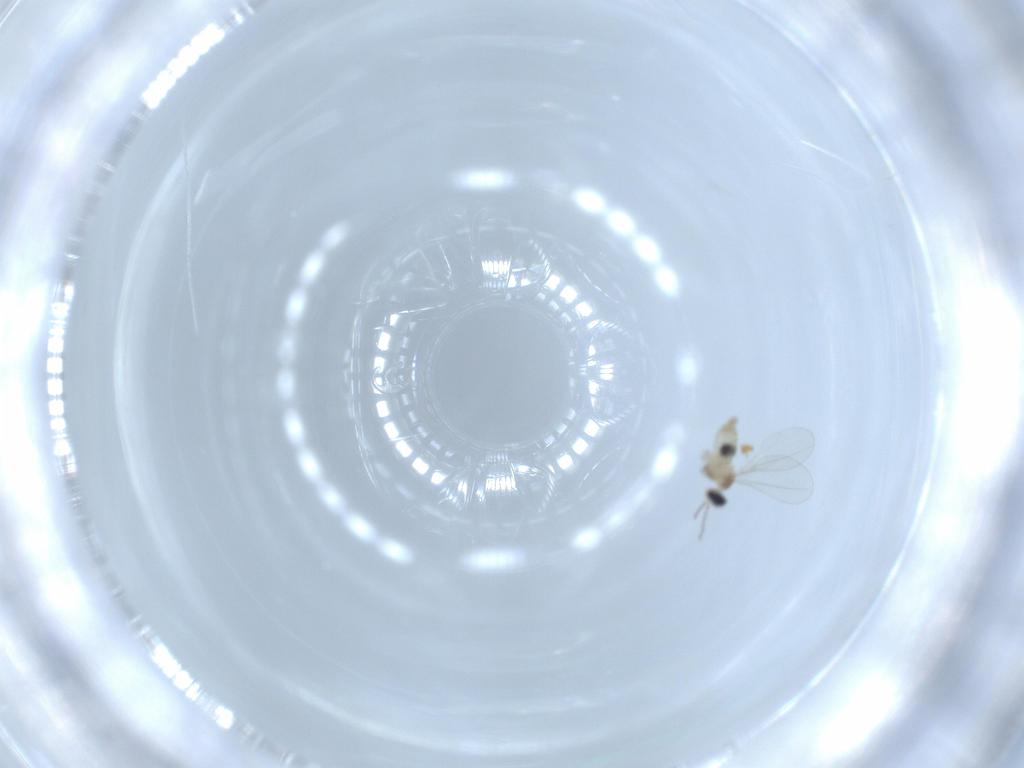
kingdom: Animalia
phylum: Arthropoda
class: Insecta
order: Diptera
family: Cecidomyiidae
